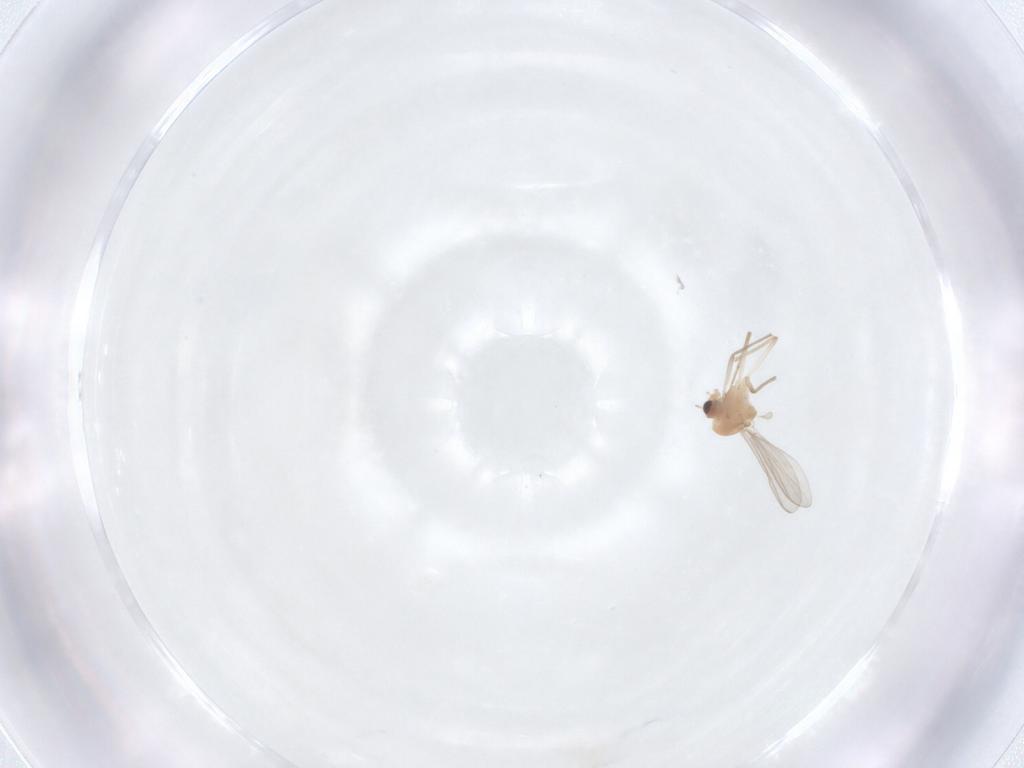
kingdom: Animalia
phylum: Arthropoda
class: Insecta
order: Diptera
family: Chironomidae
